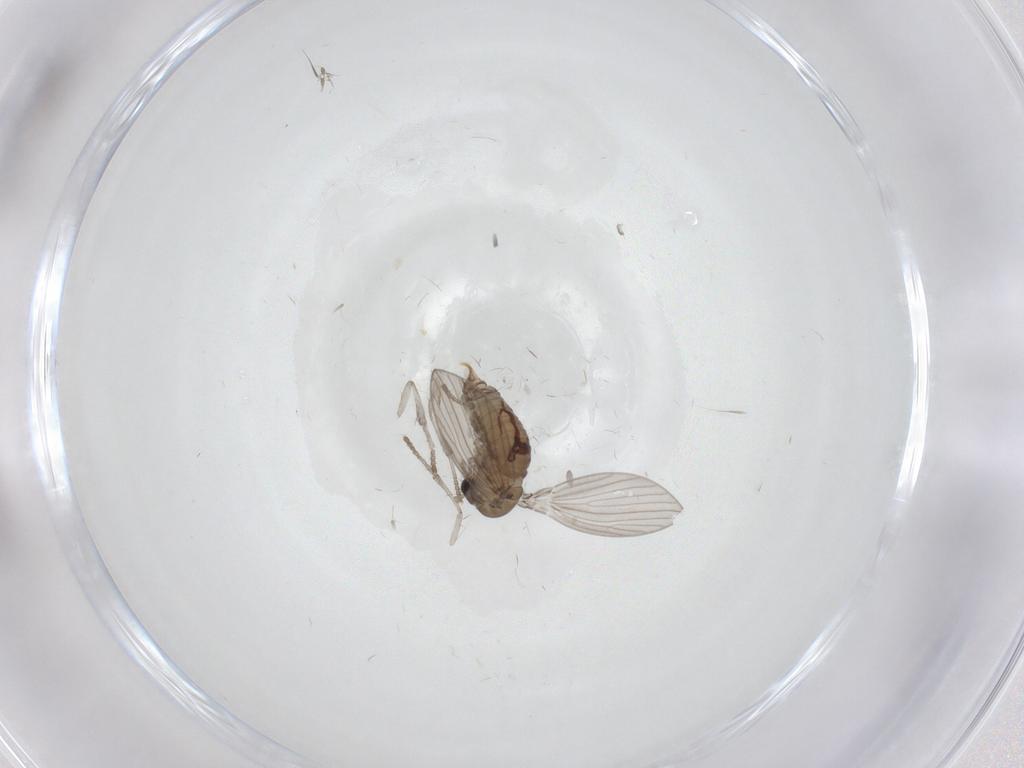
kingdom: Animalia
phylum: Arthropoda
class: Insecta
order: Diptera
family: Psychodidae
